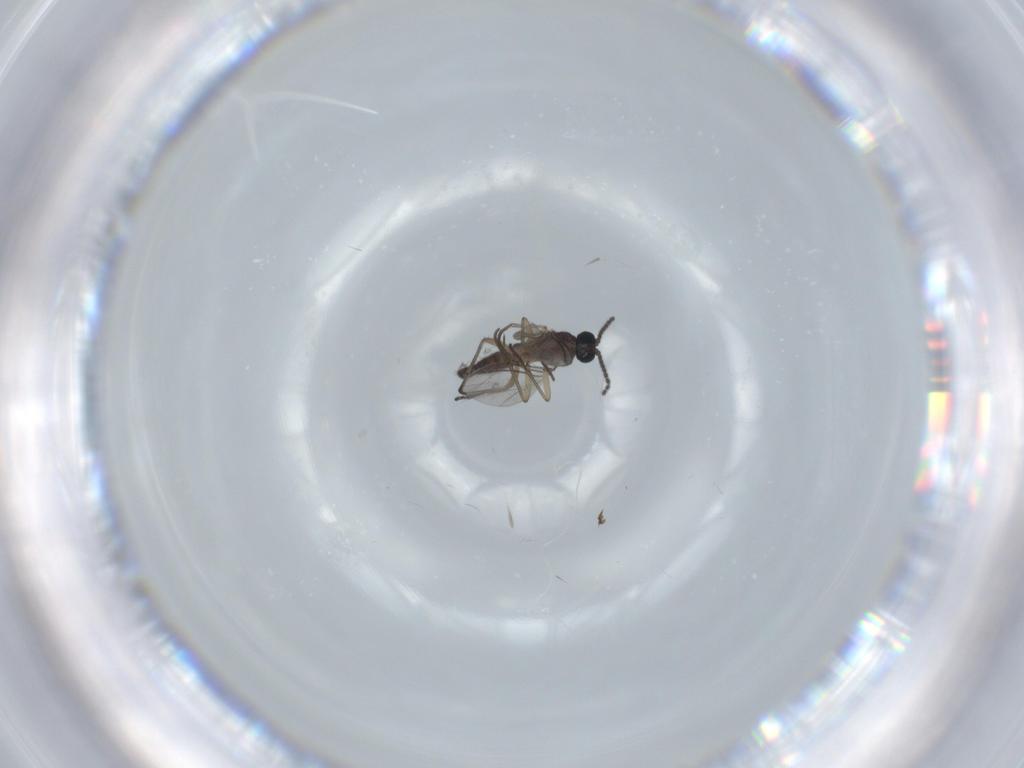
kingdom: Animalia
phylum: Arthropoda
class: Insecta
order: Diptera
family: Sciaridae
